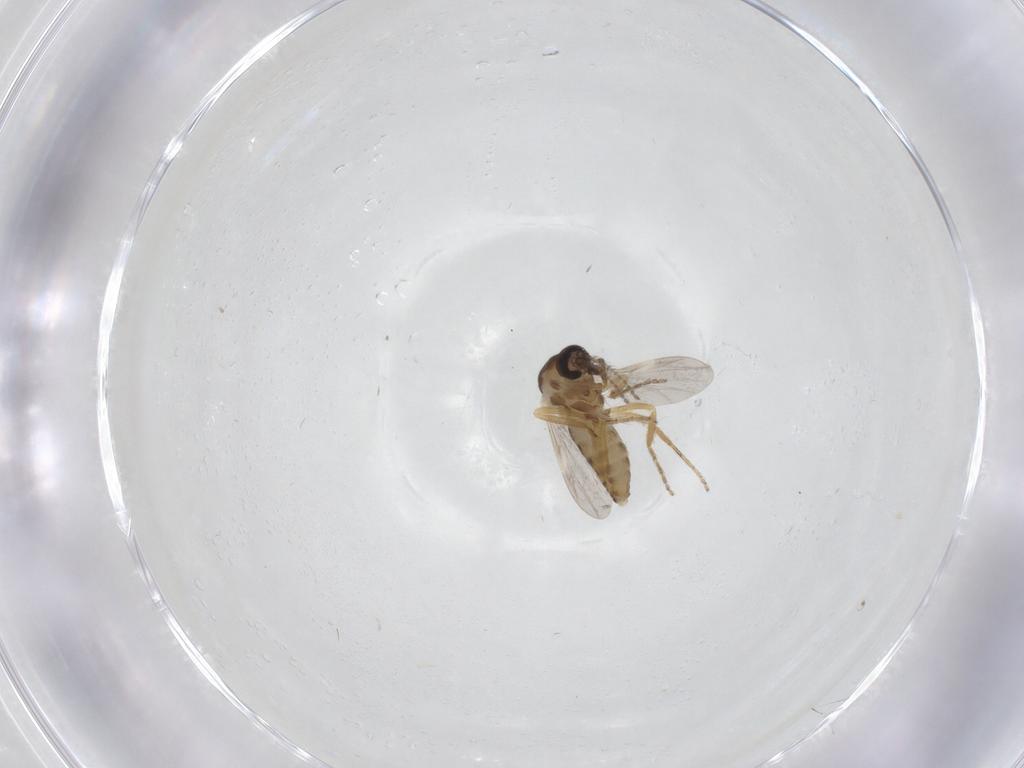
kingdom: Animalia
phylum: Arthropoda
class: Insecta
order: Diptera
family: Ceratopogonidae
